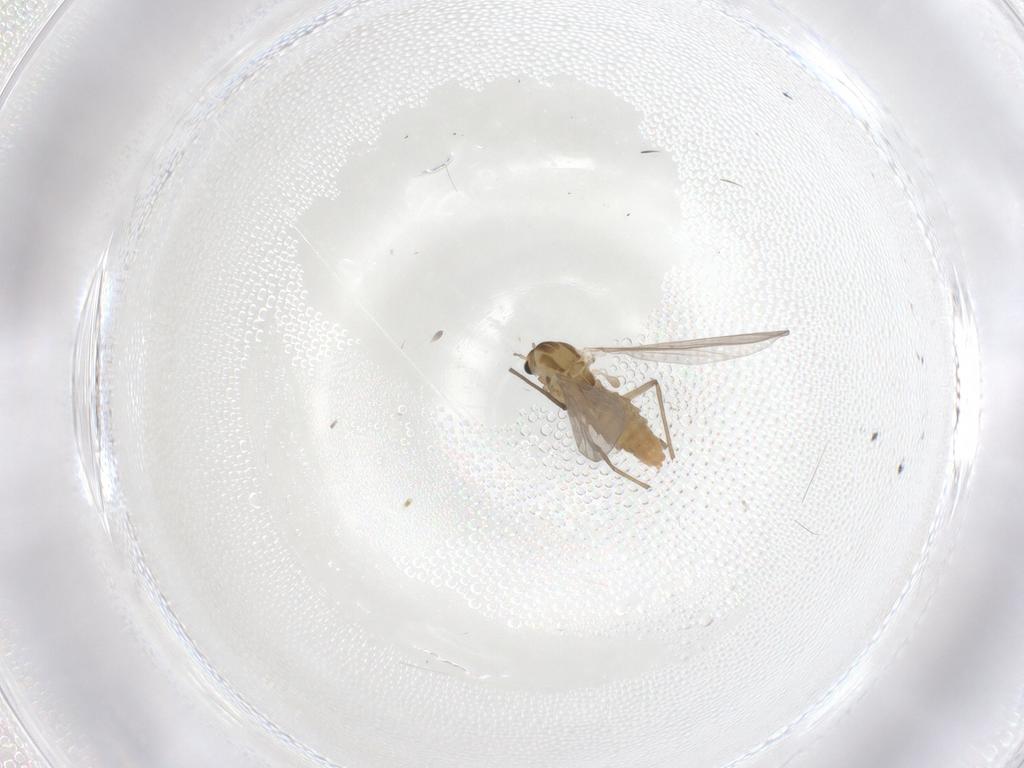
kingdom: Animalia
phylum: Arthropoda
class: Insecta
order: Diptera
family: Chironomidae
